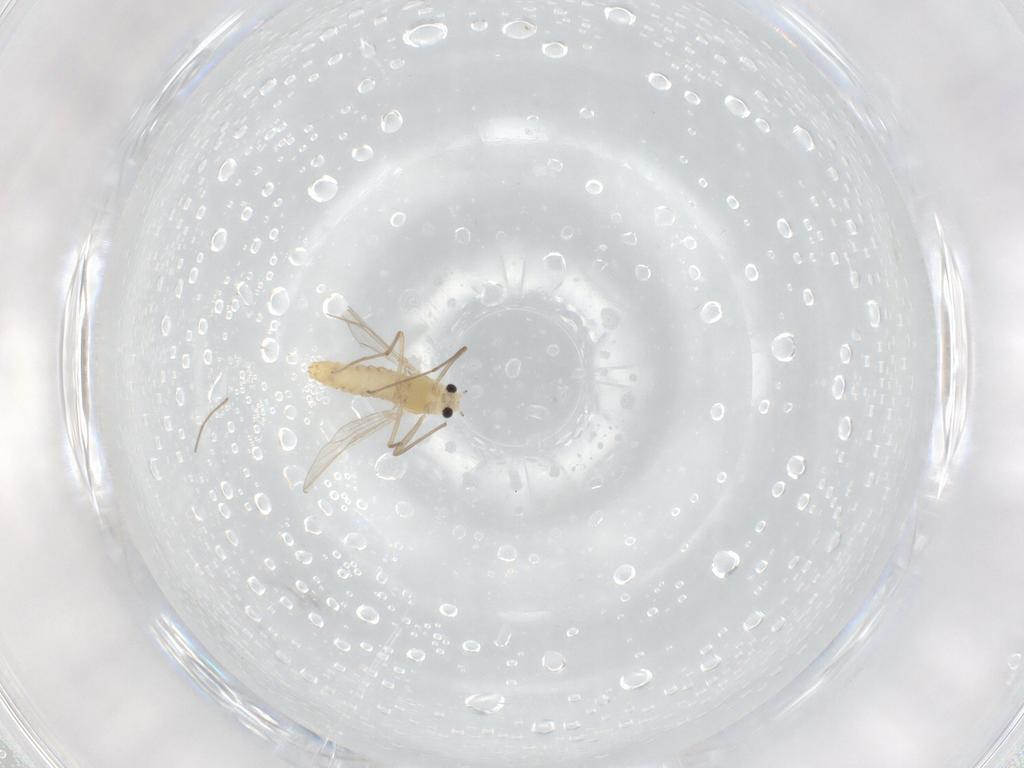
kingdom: Animalia
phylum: Arthropoda
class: Insecta
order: Diptera
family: Chironomidae
